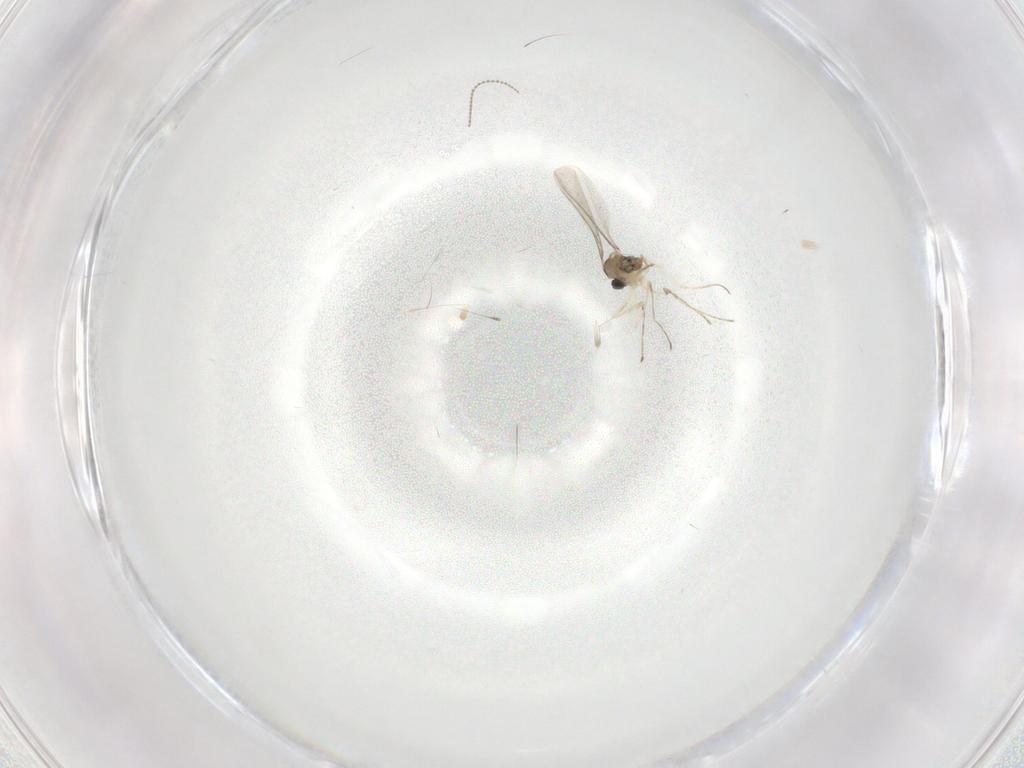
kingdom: Animalia
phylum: Arthropoda
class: Insecta
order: Diptera
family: Cecidomyiidae
